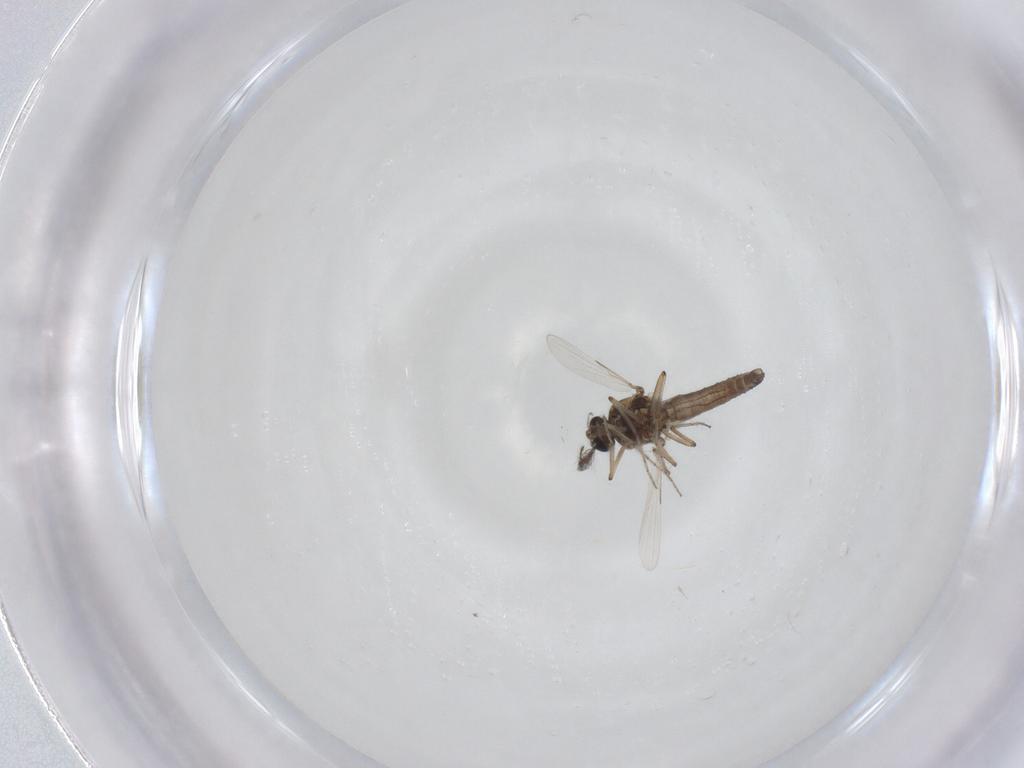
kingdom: Animalia
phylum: Arthropoda
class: Insecta
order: Diptera
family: Ceratopogonidae
